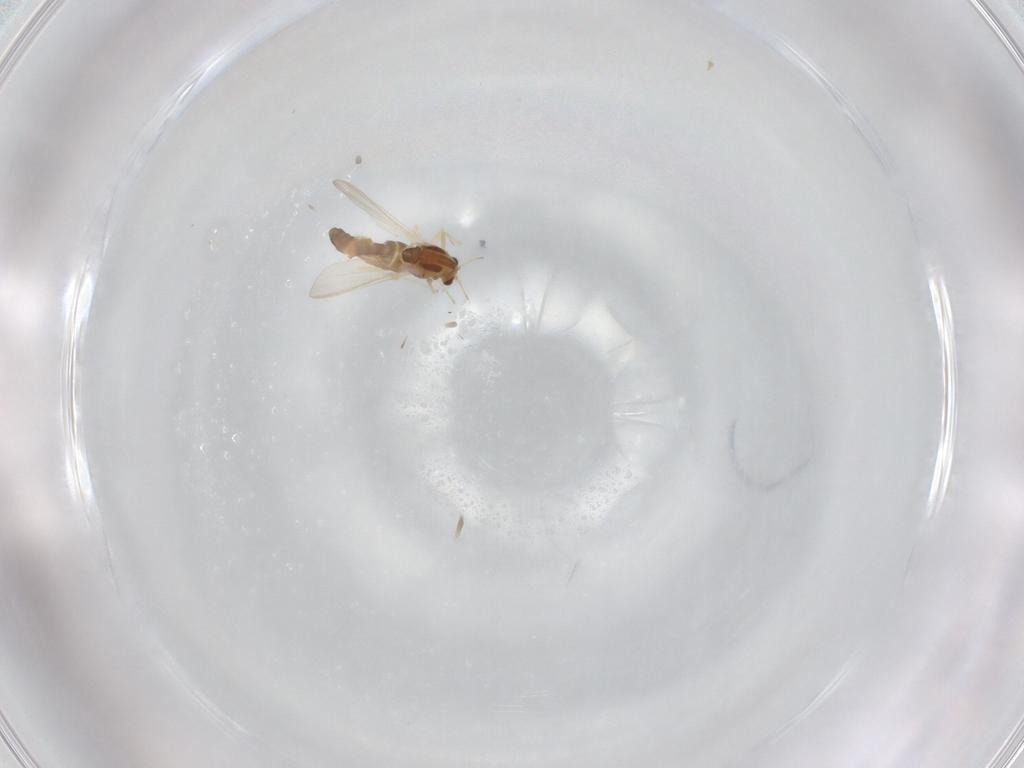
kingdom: Animalia
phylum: Arthropoda
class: Insecta
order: Diptera
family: Chironomidae
